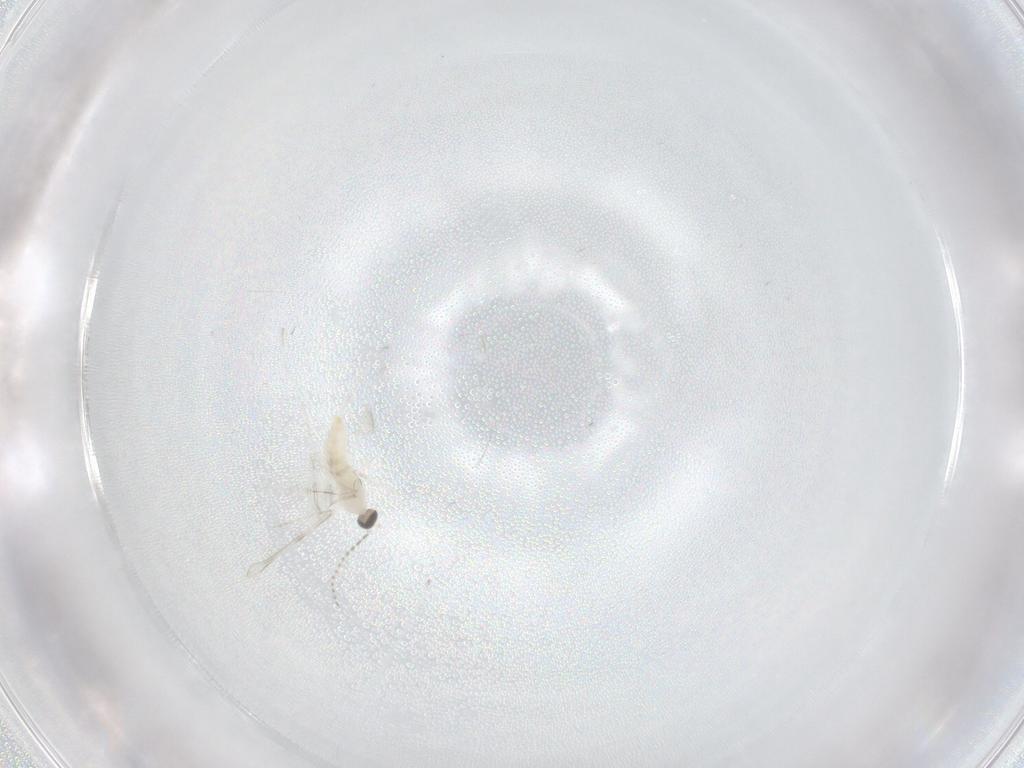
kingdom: Animalia
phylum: Arthropoda
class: Insecta
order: Diptera
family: Cecidomyiidae
